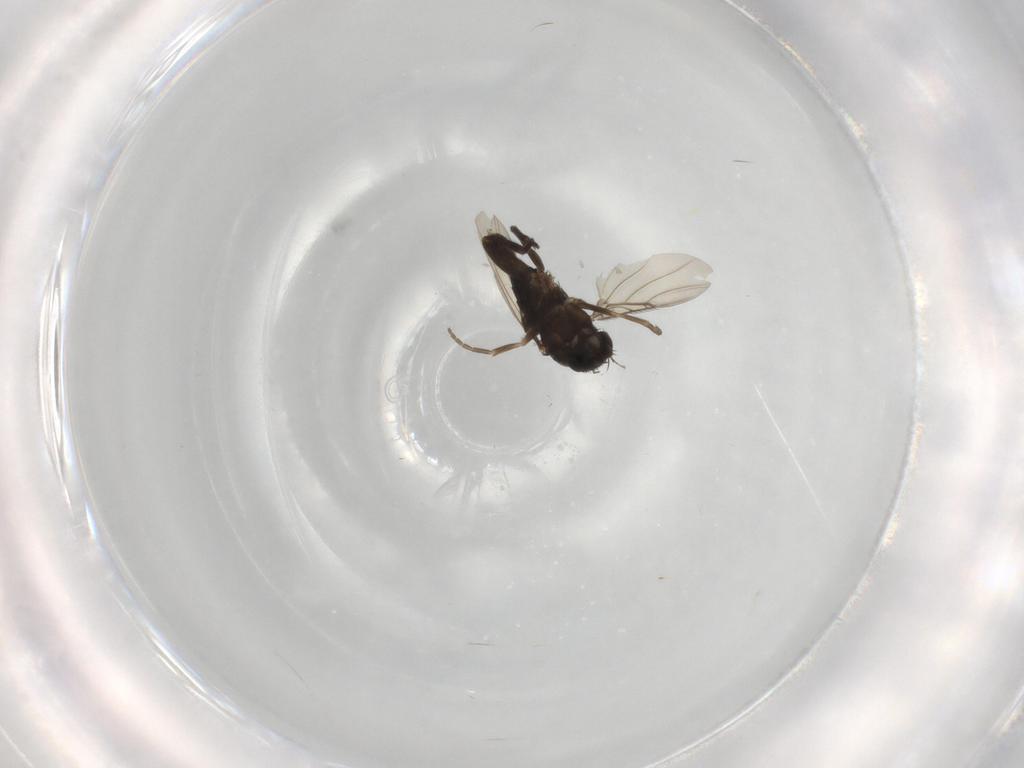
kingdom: Animalia
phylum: Arthropoda
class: Insecta
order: Diptera
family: Phoridae
